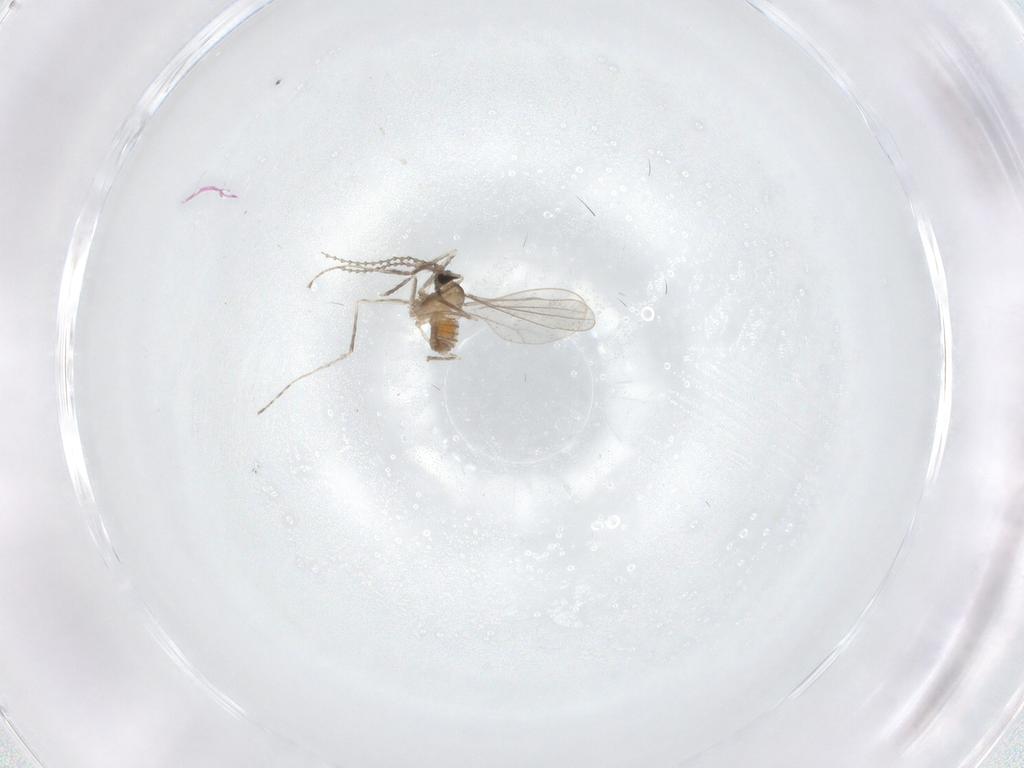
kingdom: Animalia
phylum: Arthropoda
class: Insecta
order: Diptera
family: Cecidomyiidae
